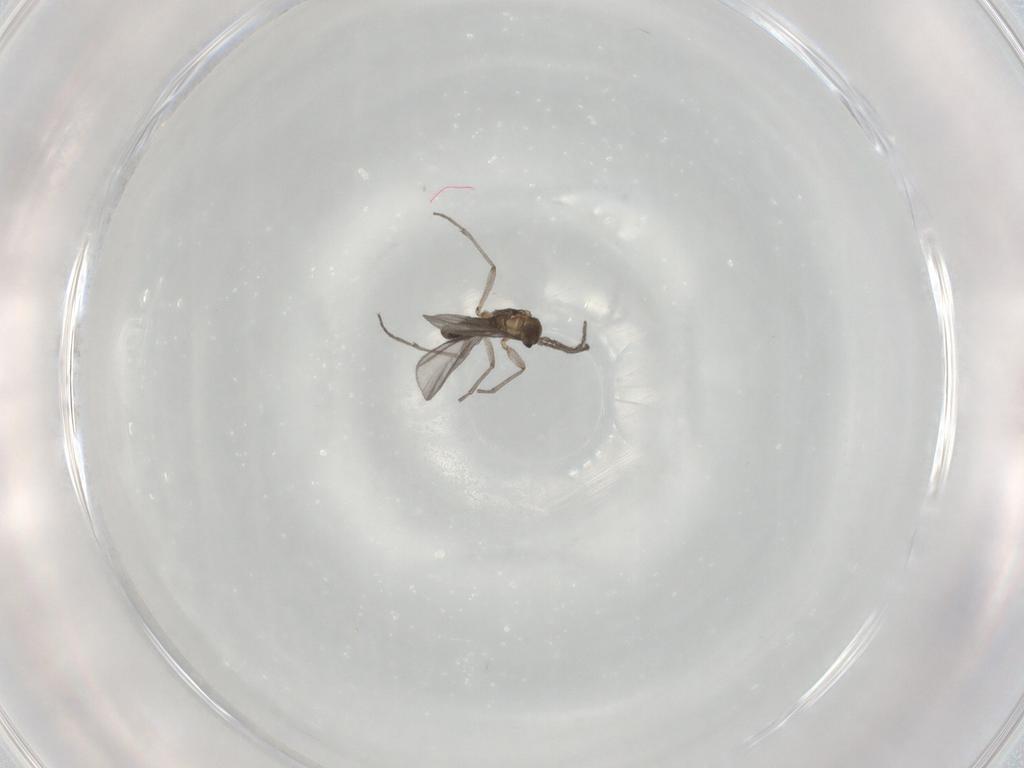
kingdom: Animalia
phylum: Arthropoda
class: Insecta
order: Diptera
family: Sciaridae
